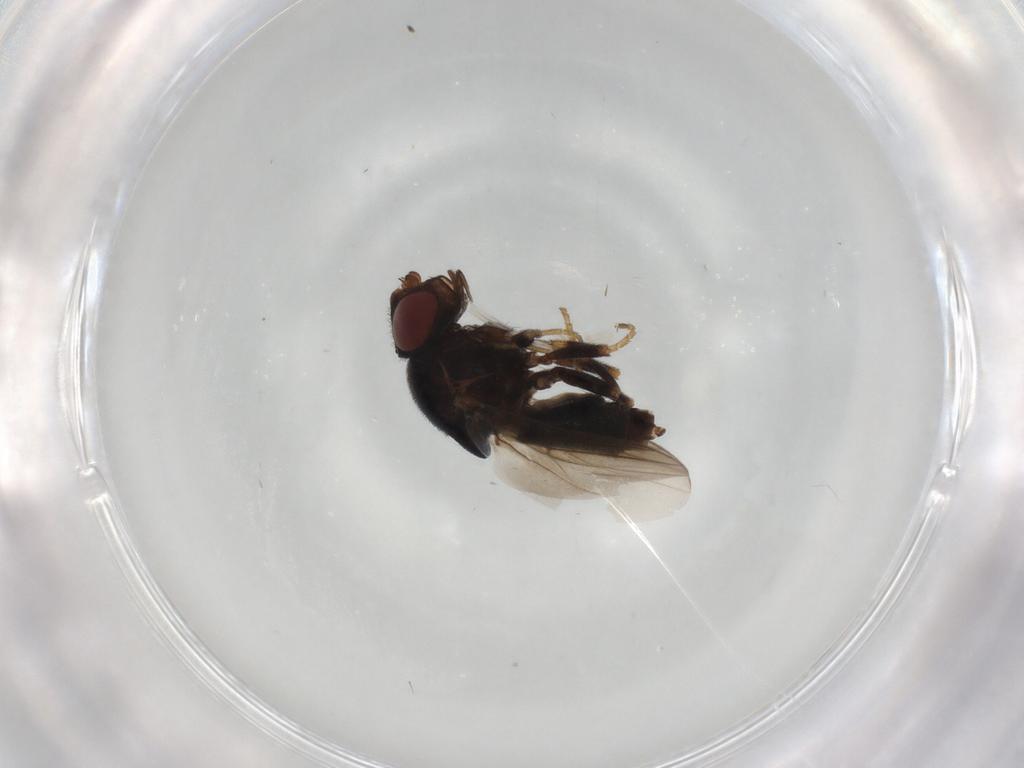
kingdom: Animalia
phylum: Arthropoda
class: Insecta
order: Diptera
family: Chloropidae
